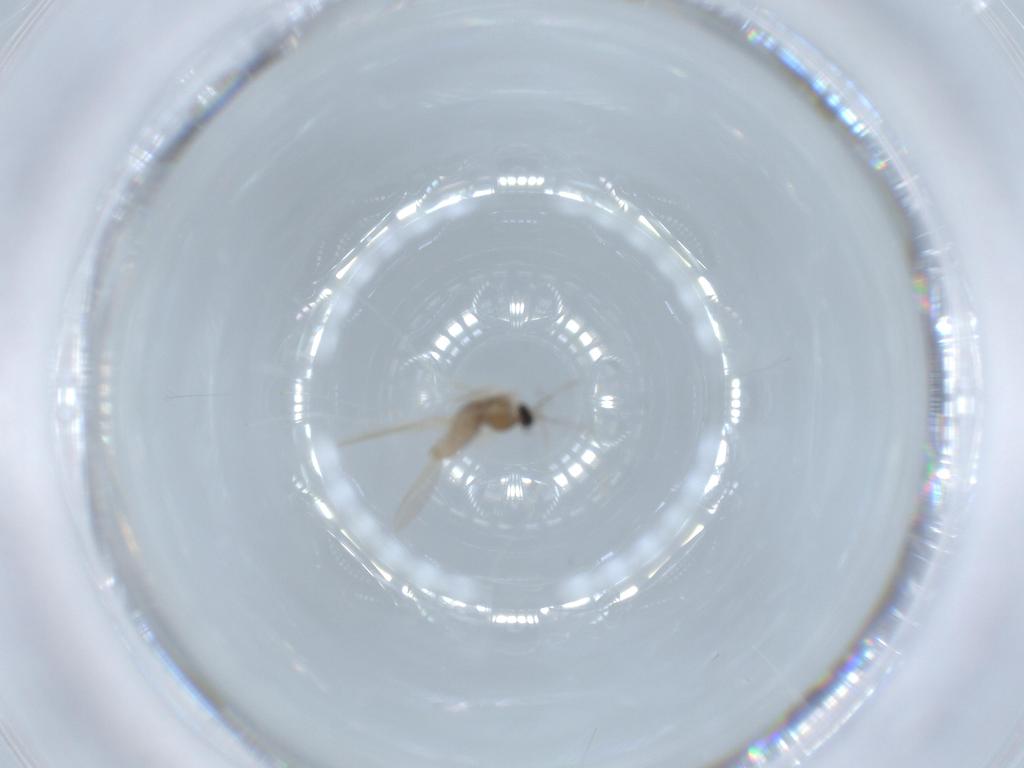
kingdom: Animalia
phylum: Arthropoda
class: Insecta
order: Diptera
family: Cecidomyiidae
